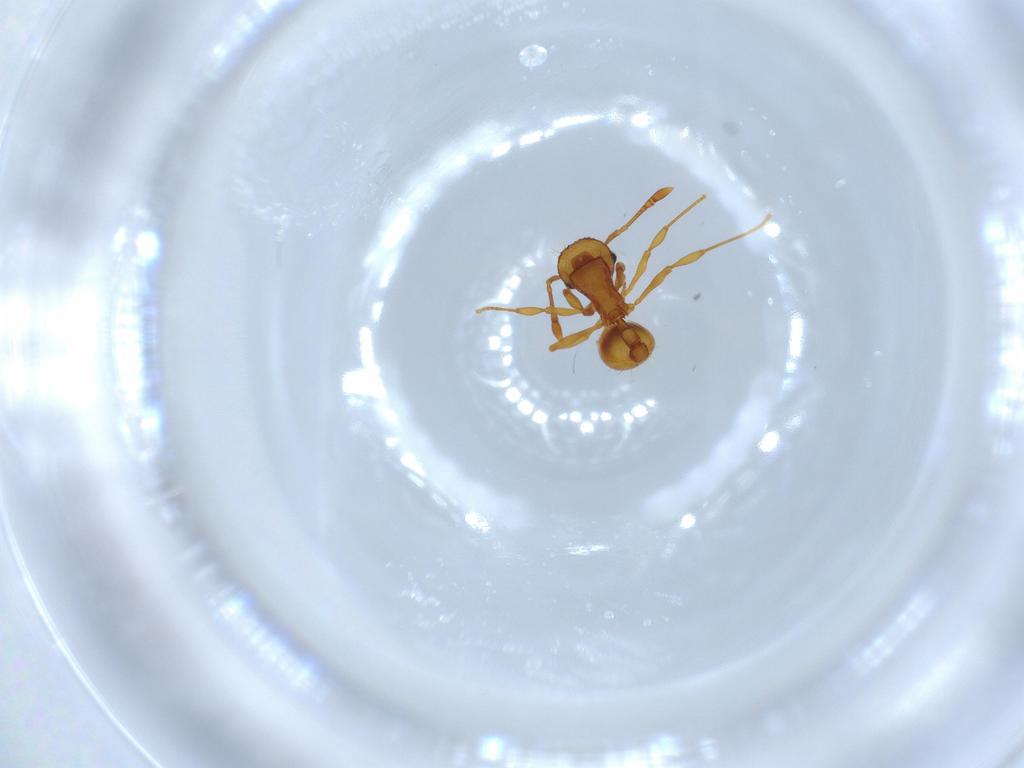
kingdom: Animalia
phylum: Arthropoda
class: Insecta
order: Hymenoptera
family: Formicidae
